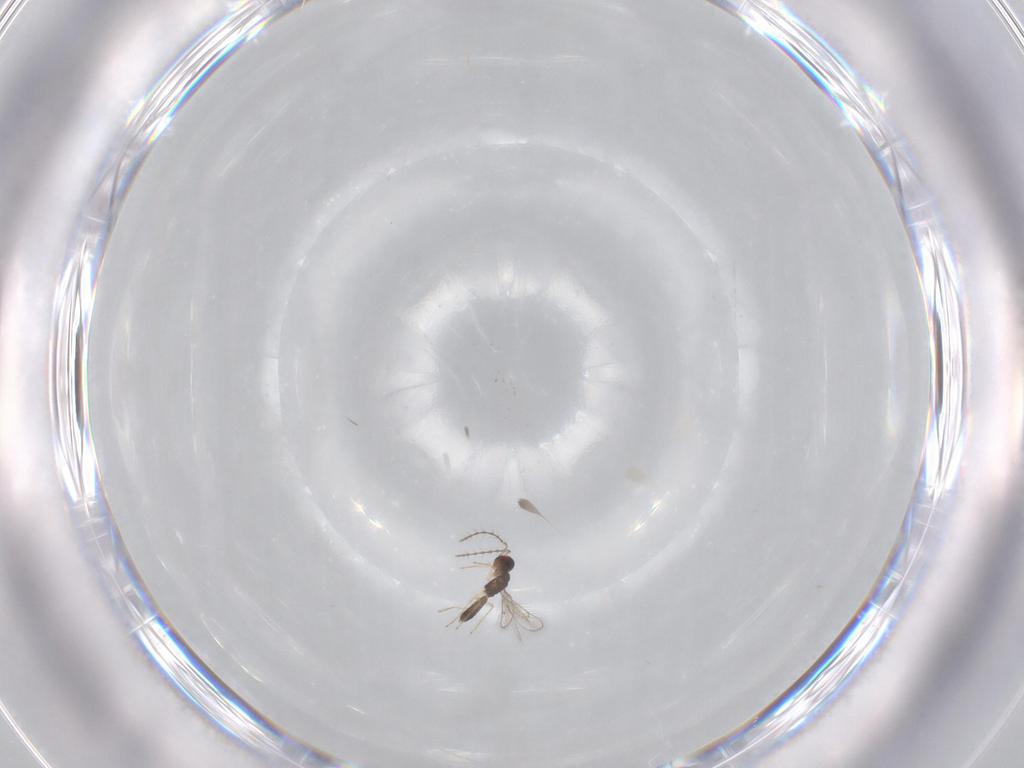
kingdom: Animalia
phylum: Arthropoda
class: Insecta
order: Hymenoptera
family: Pteromalidae
